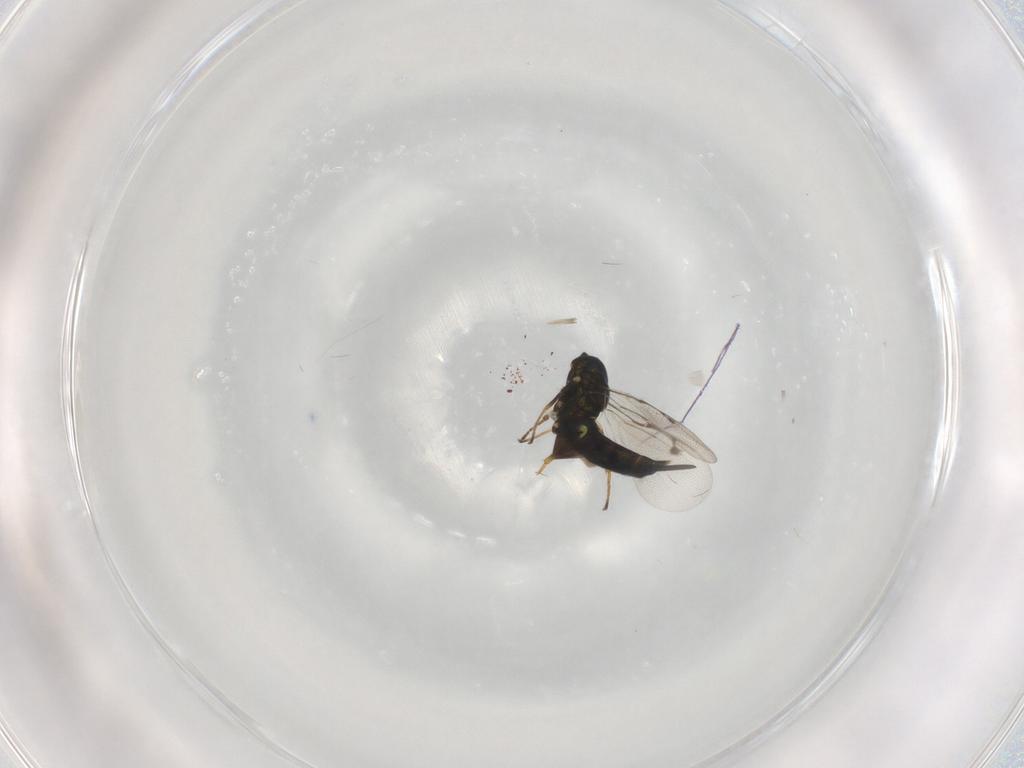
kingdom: Animalia
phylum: Arthropoda
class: Insecta
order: Hymenoptera
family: Pirenidae
